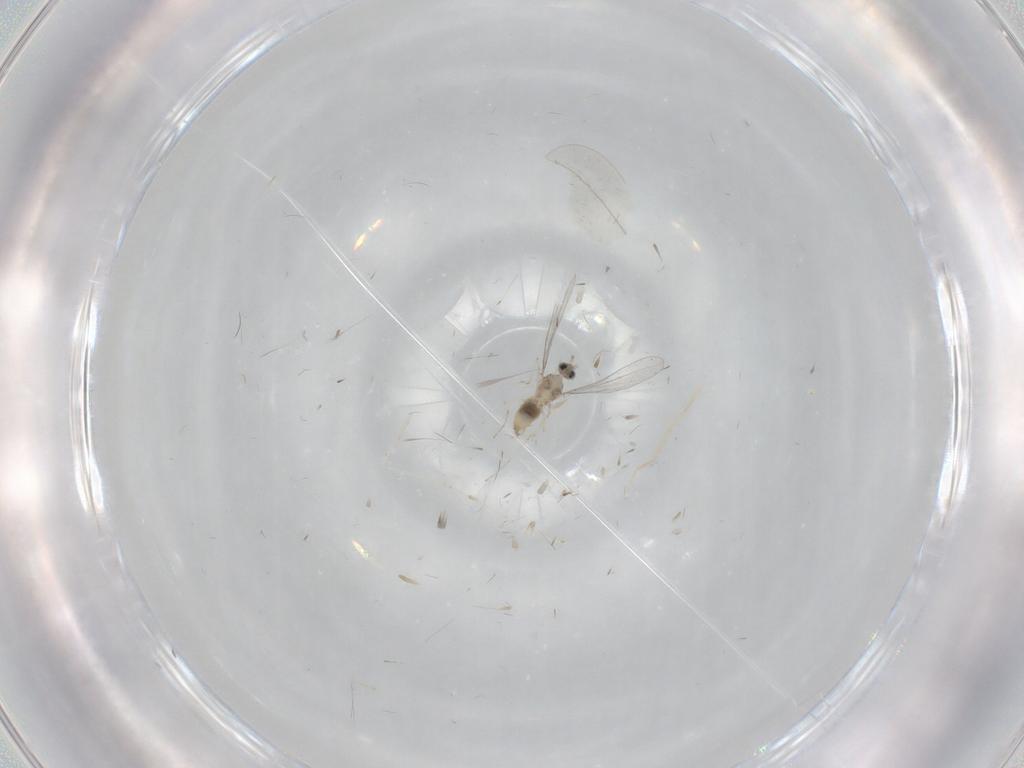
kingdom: Animalia
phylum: Arthropoda
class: Insecta
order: Diptera
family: Cecidomyiidae
